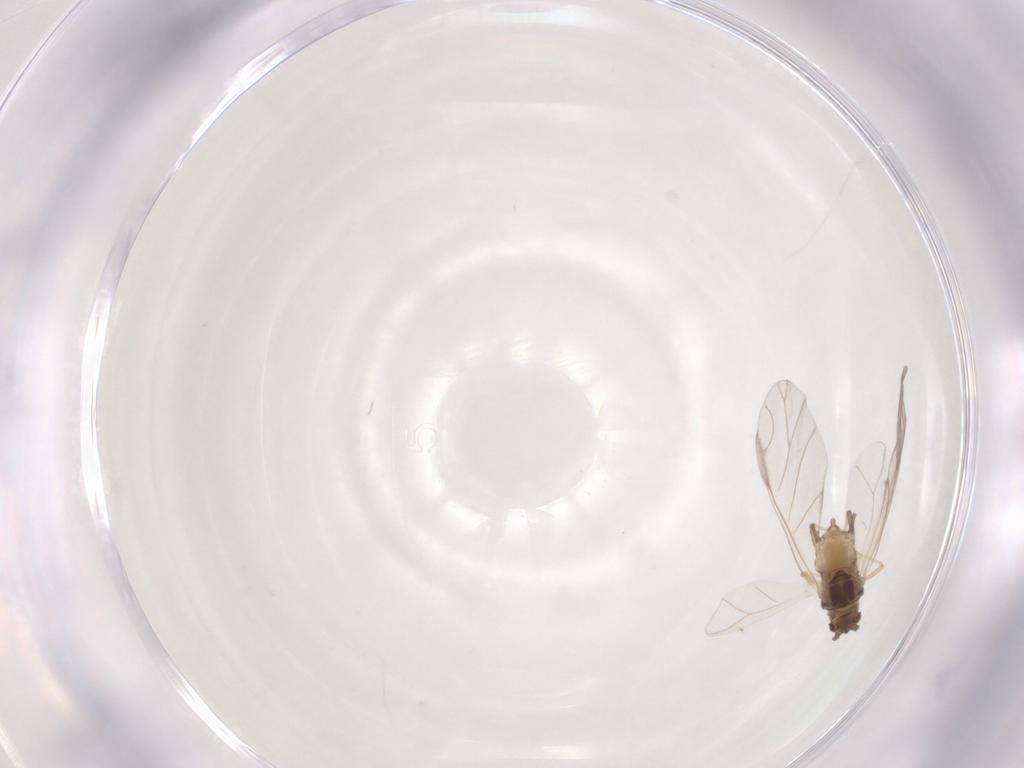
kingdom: Animalia
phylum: Arthropoda
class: Insecta
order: Hemiptera
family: Aphididae
